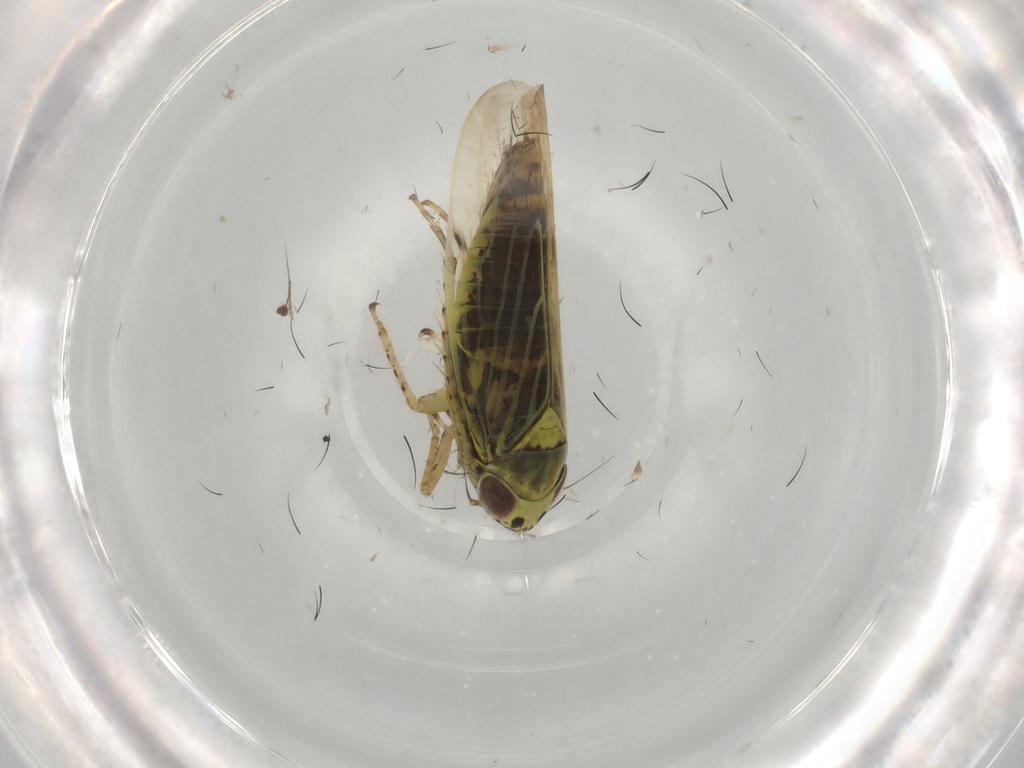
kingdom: Animalia
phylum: Arthropoda
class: Insecta
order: Hemiptera
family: Cicadellidae
